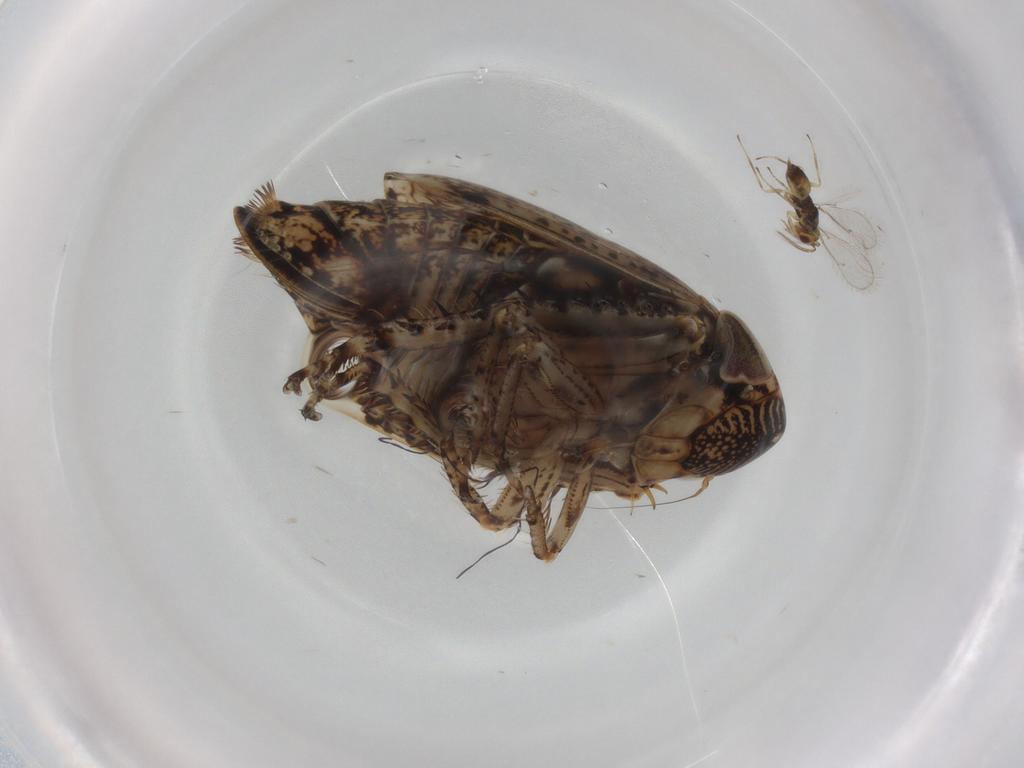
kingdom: Animalia
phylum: Arthropoda
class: Insecta
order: Hemiptera
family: Cicadellidae
